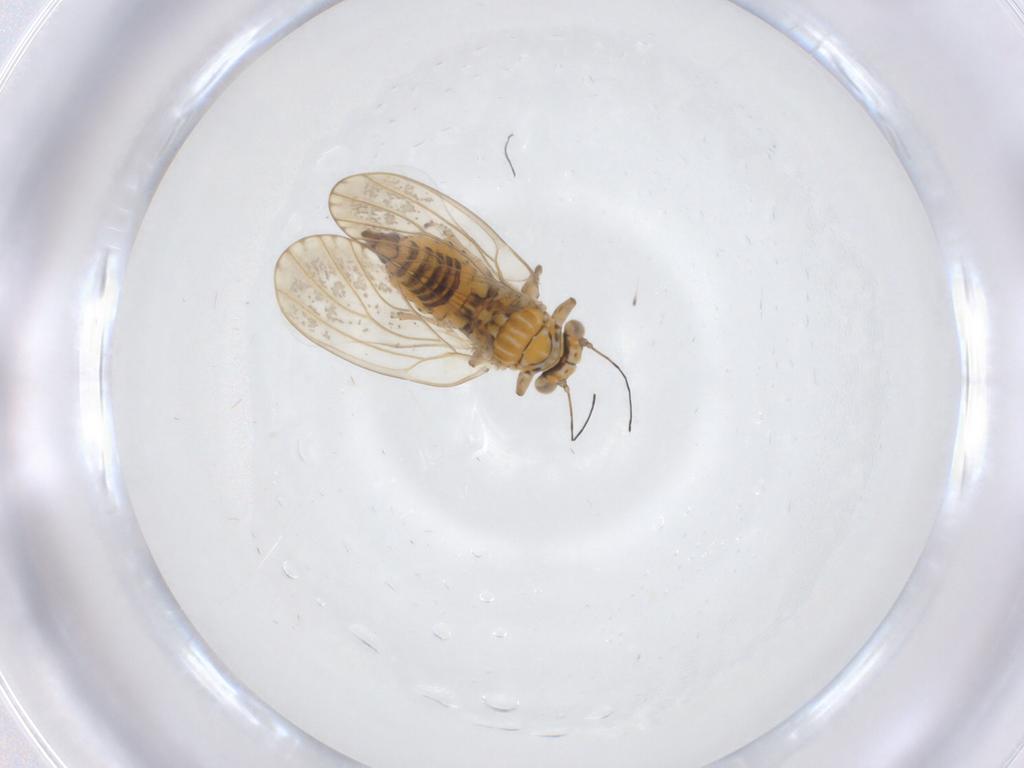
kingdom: Animalia
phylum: Arthropoda
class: Insecta
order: Hemiptera
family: Cicadellidae
